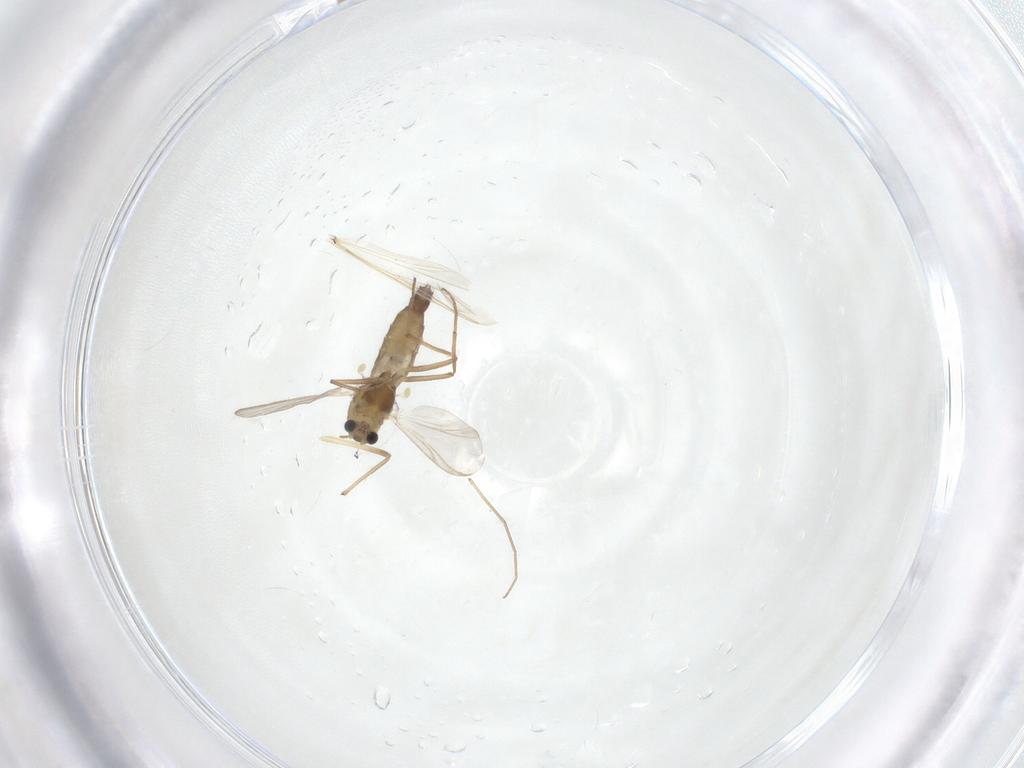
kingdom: Animalia
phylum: Arthropoda
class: Insecta
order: Diptera
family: Chironomidae
